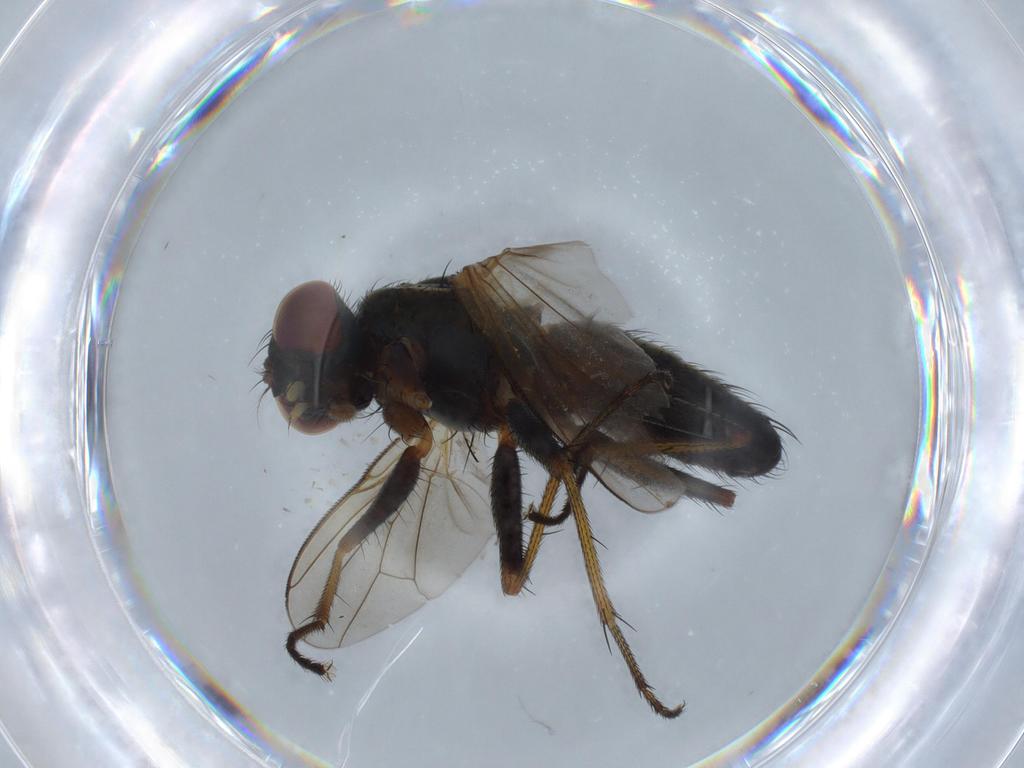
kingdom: Animalia
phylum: Arthropoda
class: Insecta
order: Diptera
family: Muscidae
